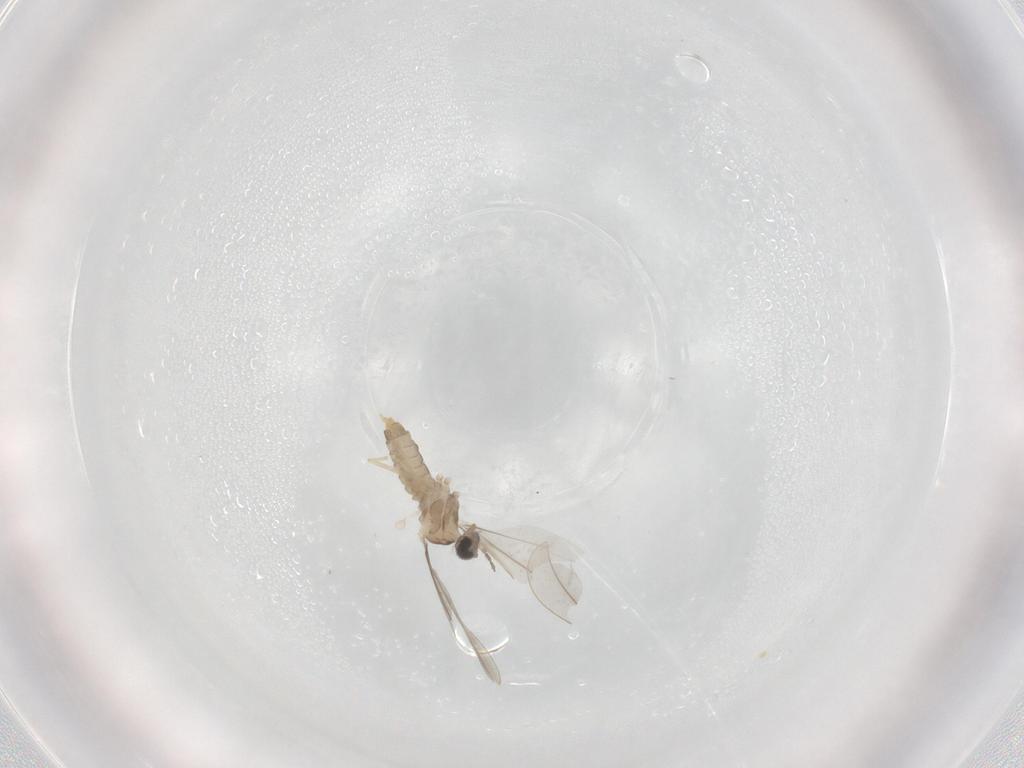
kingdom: Animalia
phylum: Arthropoda
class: Insecta
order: Diptera
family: Cecidomyiidae
